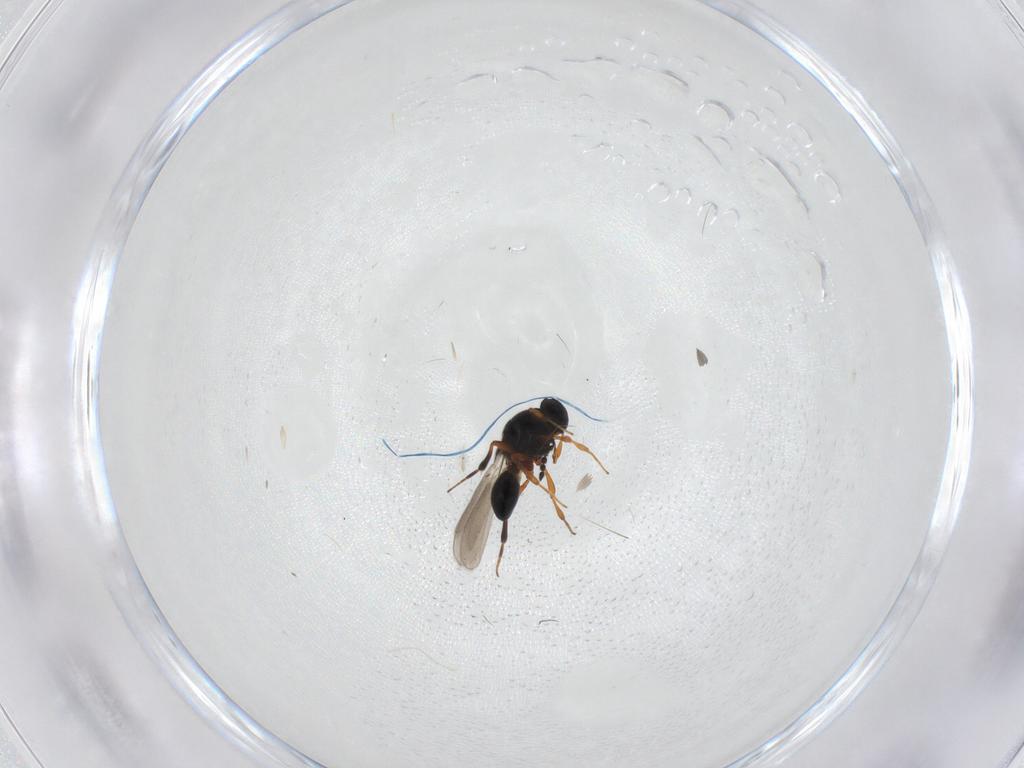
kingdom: Animalia
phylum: Arthropoda
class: Insecta
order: Hymenoptera
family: Platygastridae
